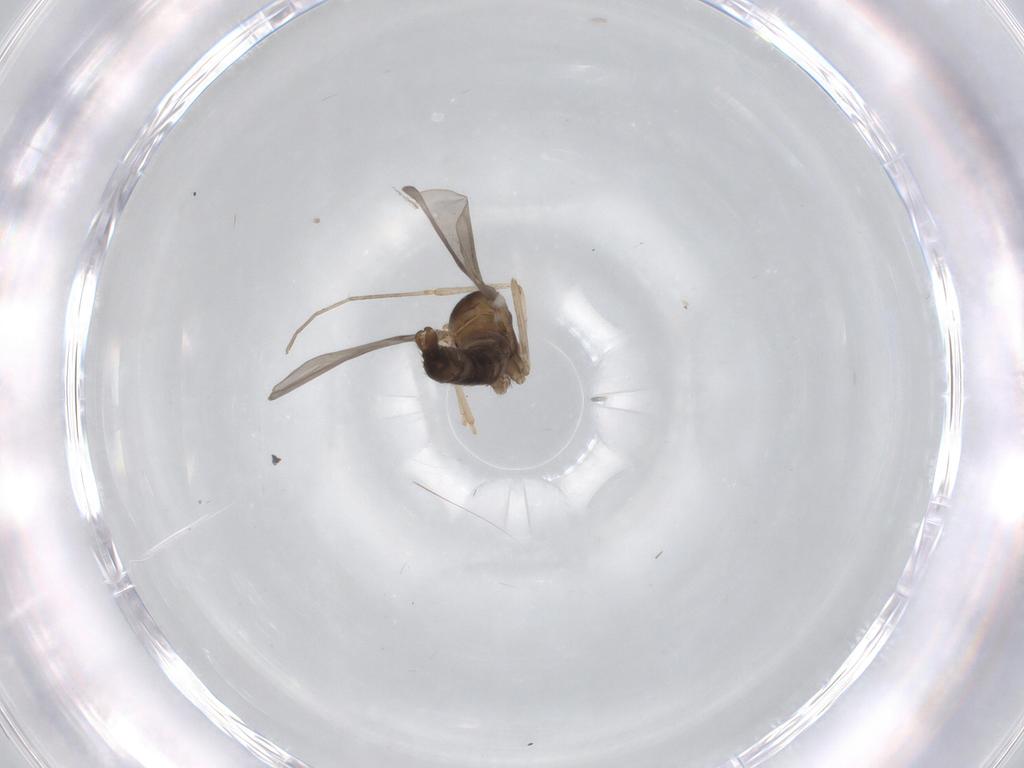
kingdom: Animalia
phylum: Arthropoda
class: Insecta
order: Diptera
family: Cecidomyiidae
